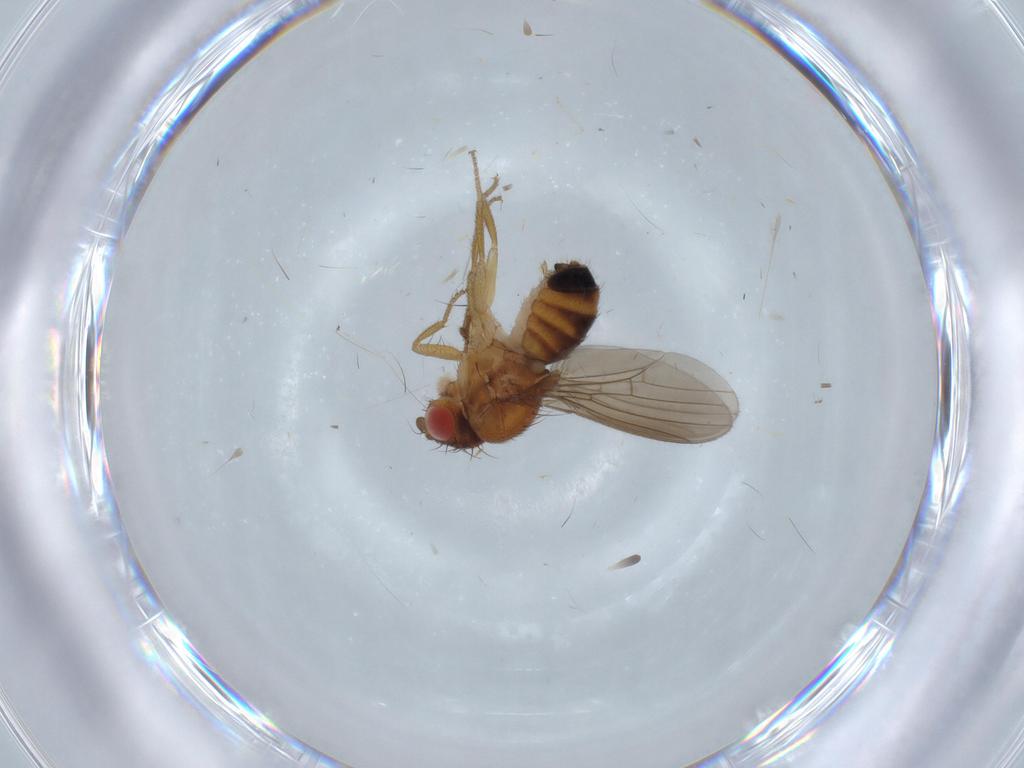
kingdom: Animalia
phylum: Arthropoda
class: Insecta
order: Diptera
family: Drosophilidae
